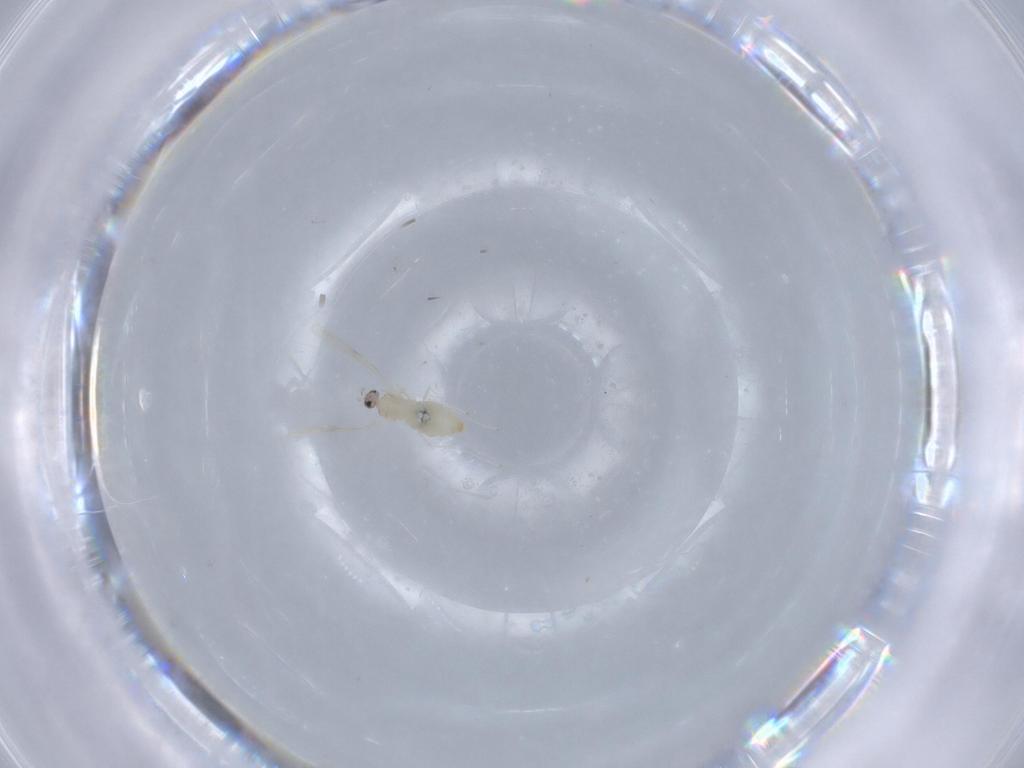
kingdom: Animalia
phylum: Arthropoda
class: Insecta
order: Diptera
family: Cecidomyiidae
